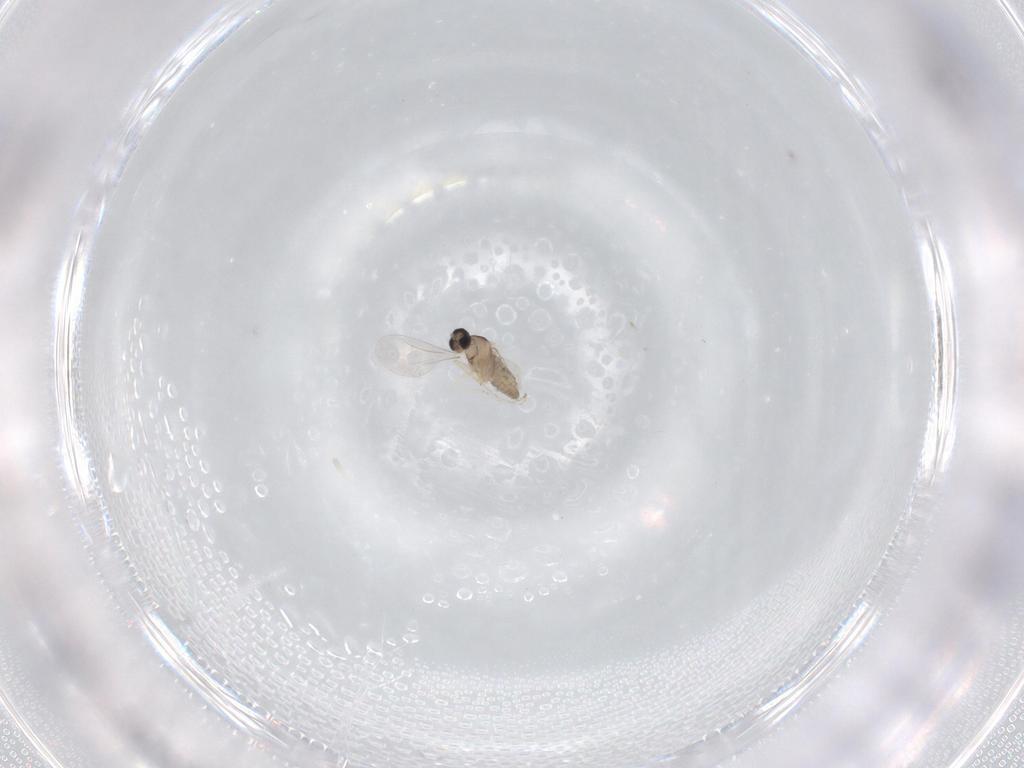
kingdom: Animalia
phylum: Arthropoda
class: Insecta
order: Diptera
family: Cecidomyiidae
